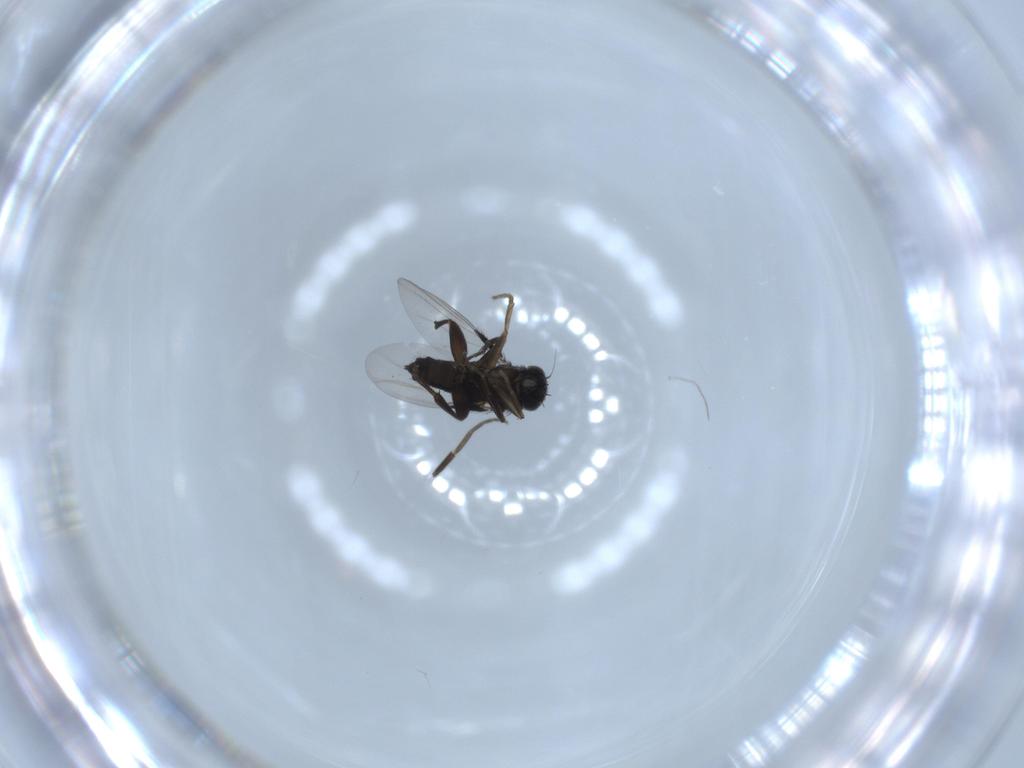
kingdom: Animalia
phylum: Arthropoda
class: Insecta
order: Diptera
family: Phoridae
